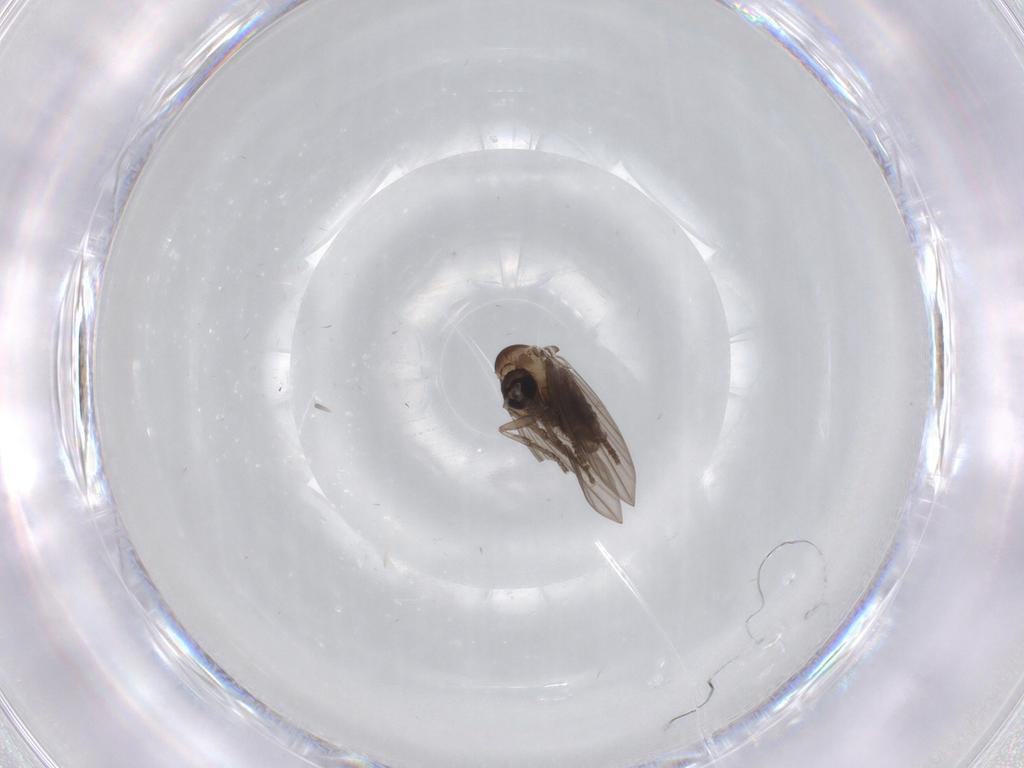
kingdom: Animalia
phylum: Arthropoda
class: Insecta
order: Diptera
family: Psychodidae
